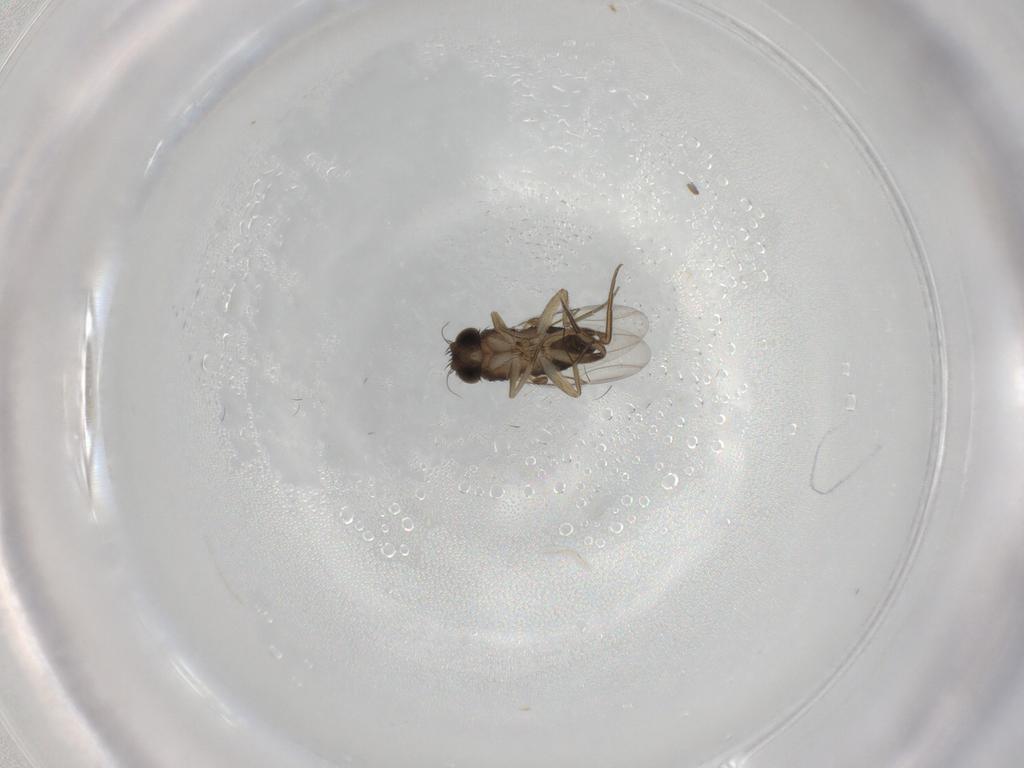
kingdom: Animalia
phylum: Arthropoda
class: Insecta
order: Diptera
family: Phoridae
